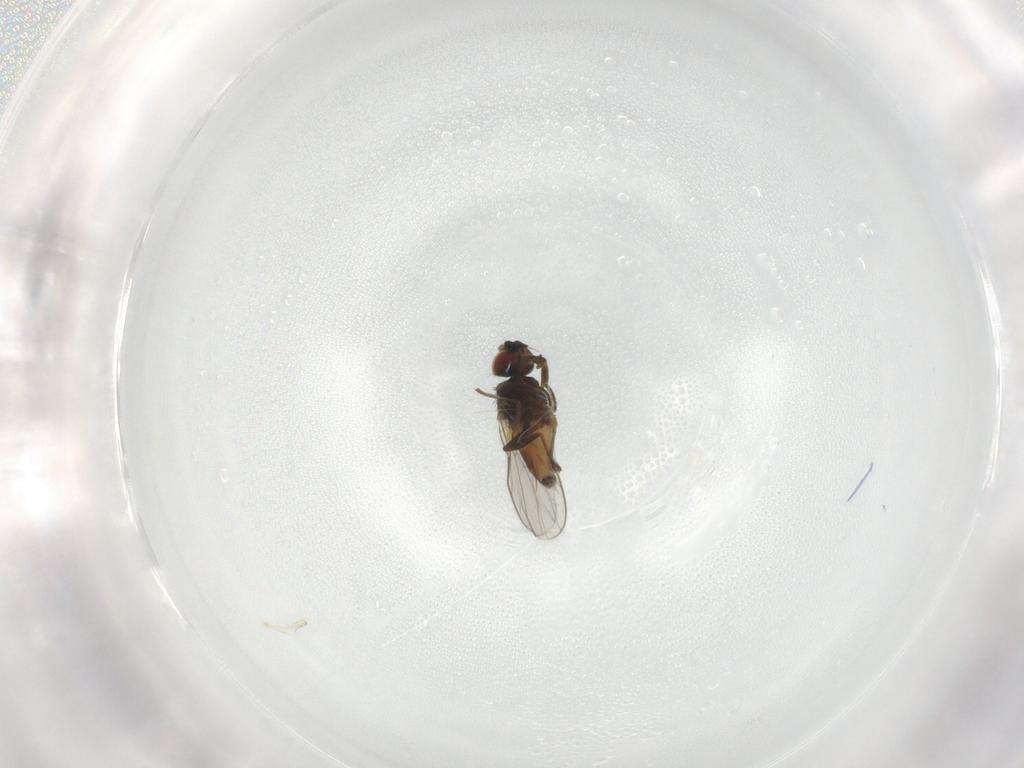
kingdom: Animalia
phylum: Arthropoda
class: Insecta
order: Diptera
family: Chloropidae
